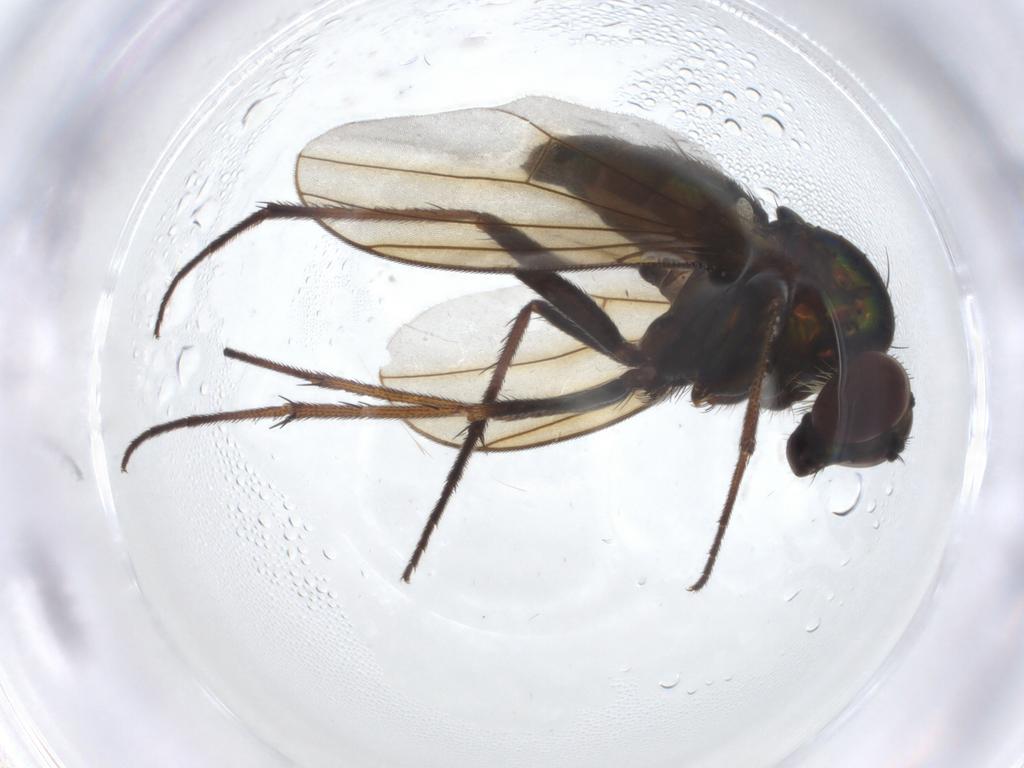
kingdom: Animalia
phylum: Arthropoda
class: Insecta
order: Diptera
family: Dolichopodidae
